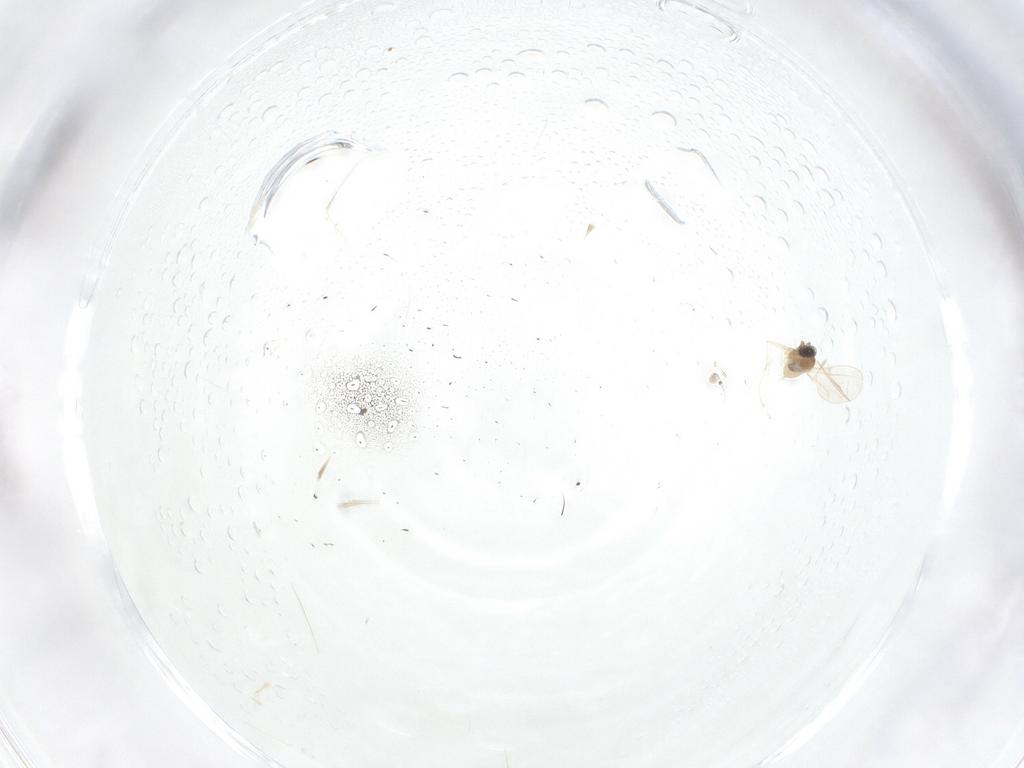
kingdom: Animalia
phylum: Arthropoda
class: Insecta
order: Diptera
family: Cecidomyiidae
